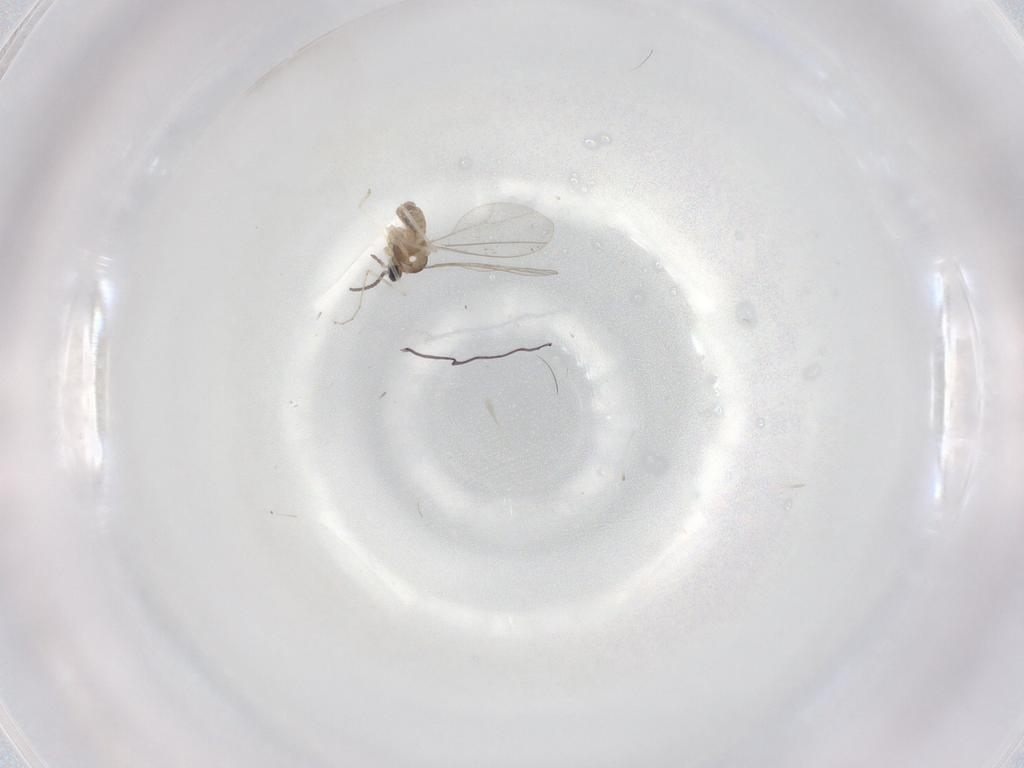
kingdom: Animalia
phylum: Arthropoda
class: Insecta
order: Diptera
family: Cecidomyiidae
